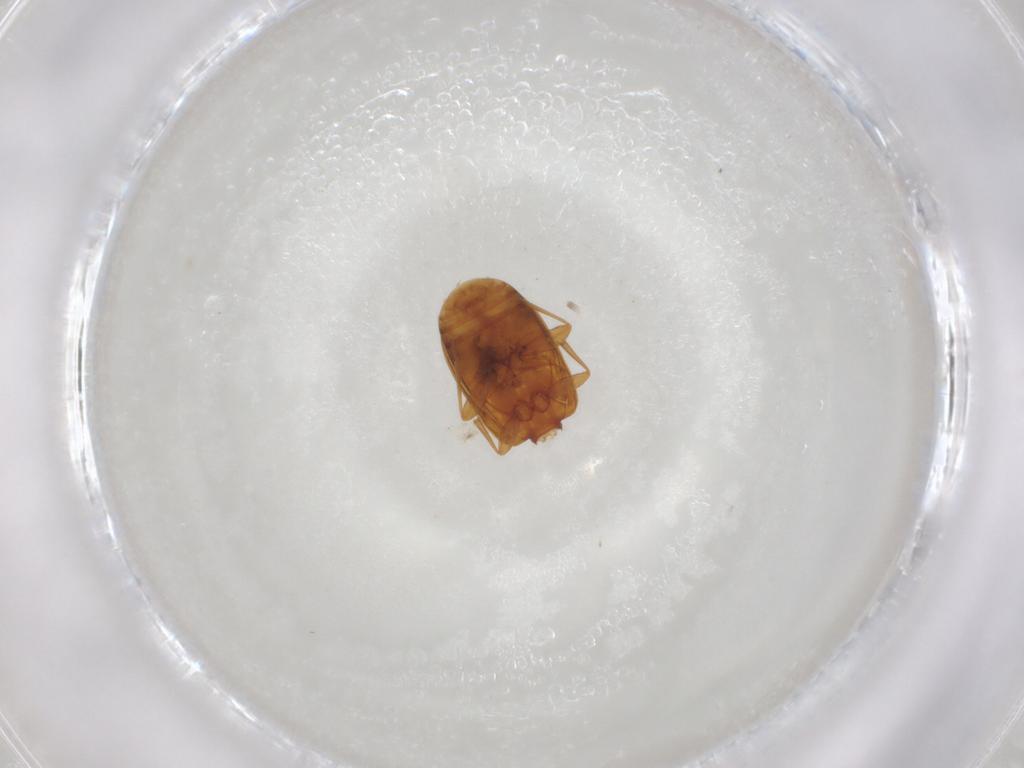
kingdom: Animalia
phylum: Arthropoda
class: Insecta
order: Coleoptera
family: Carabidae
